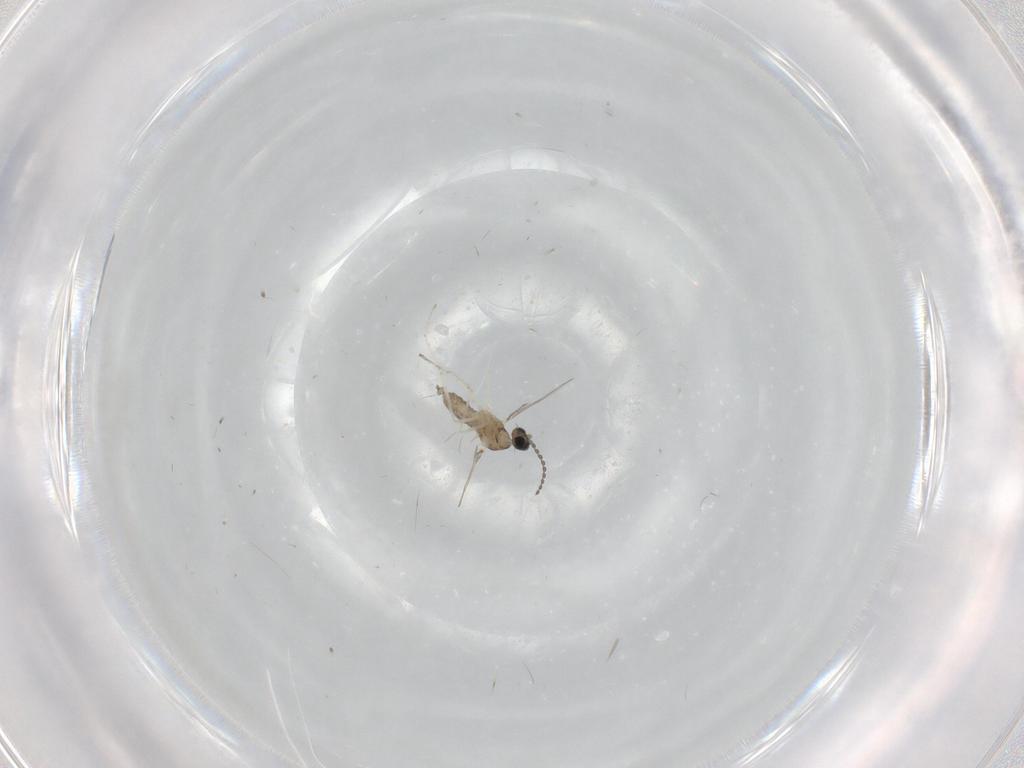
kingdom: Animalia
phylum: Arthropoda
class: Insecta
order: Diptera
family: Cecidomyiidae
